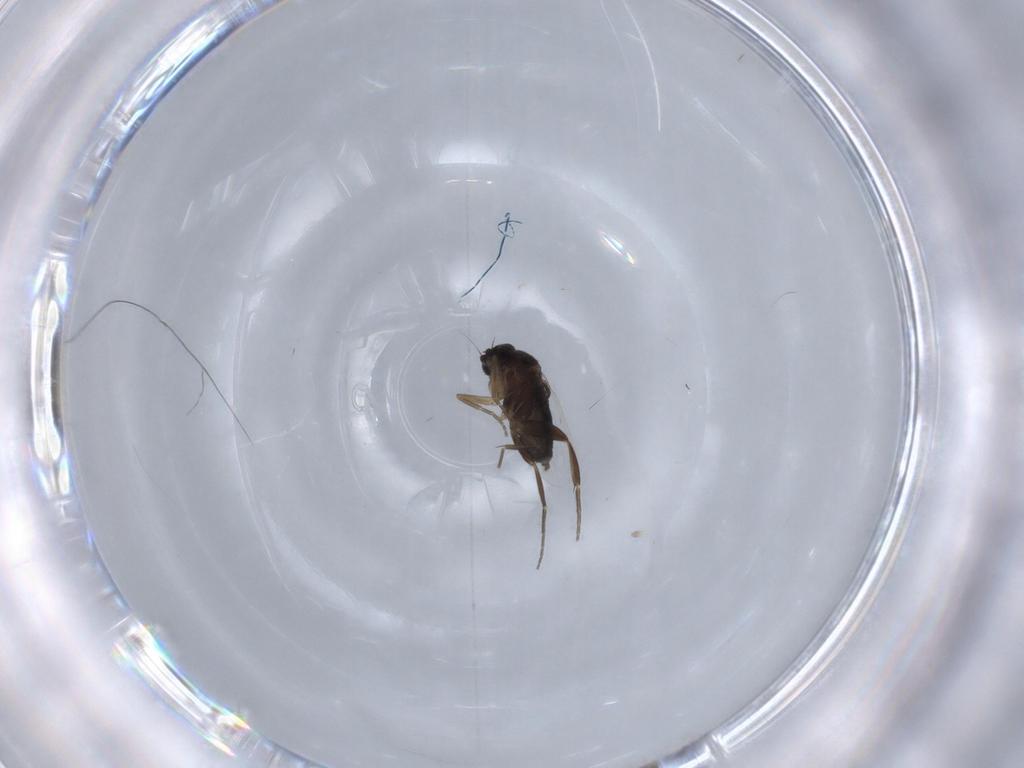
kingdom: Animalia
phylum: Arthropoda
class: Insecta
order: Diptera
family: Phoridae
